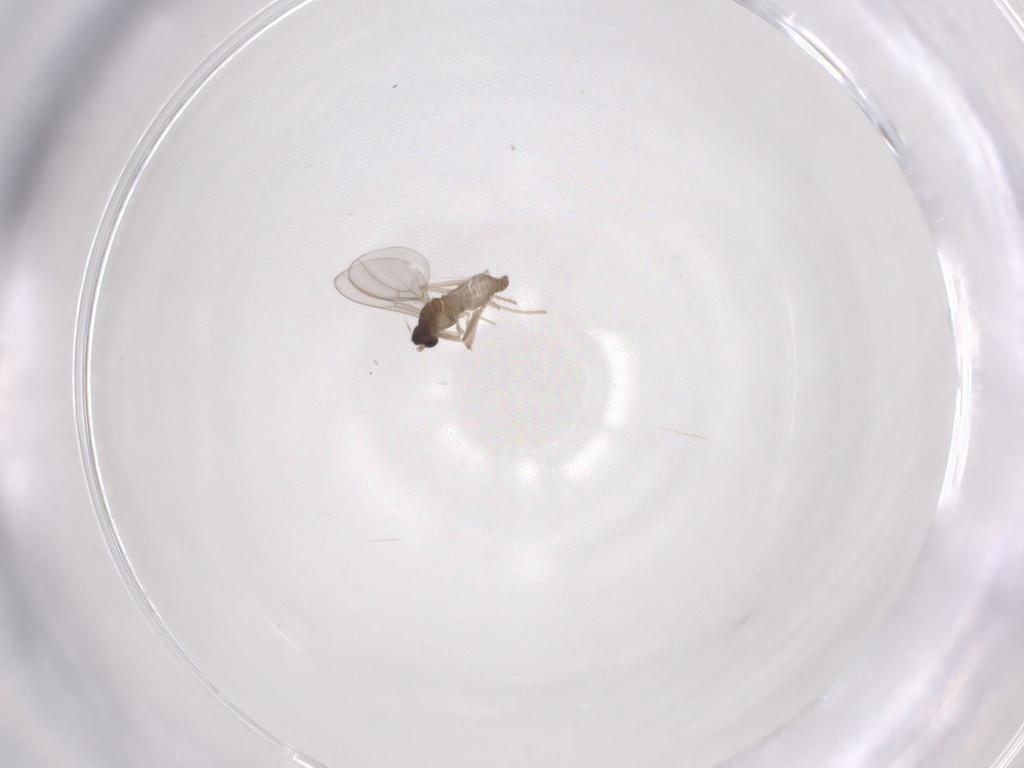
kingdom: Animalia
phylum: Arthropoda
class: Insecta
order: Diptera
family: Cecidomyiidae
